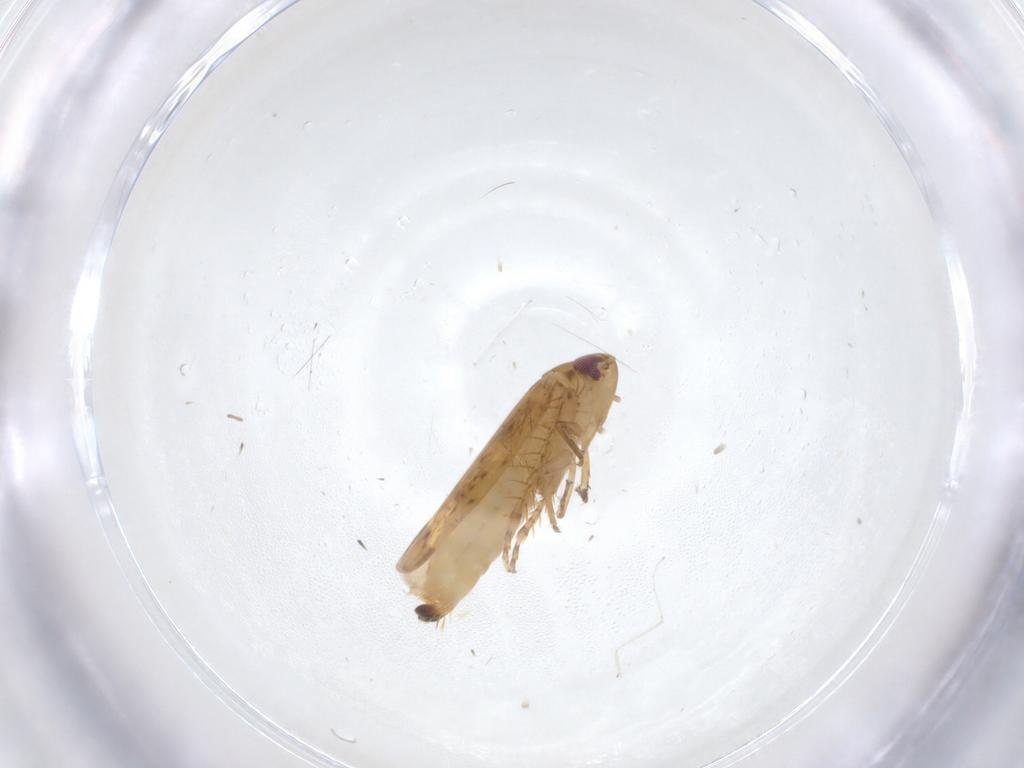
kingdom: Animalia
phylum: Arthropoda
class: Insecta
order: Hemiptera
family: Cicadellidae
